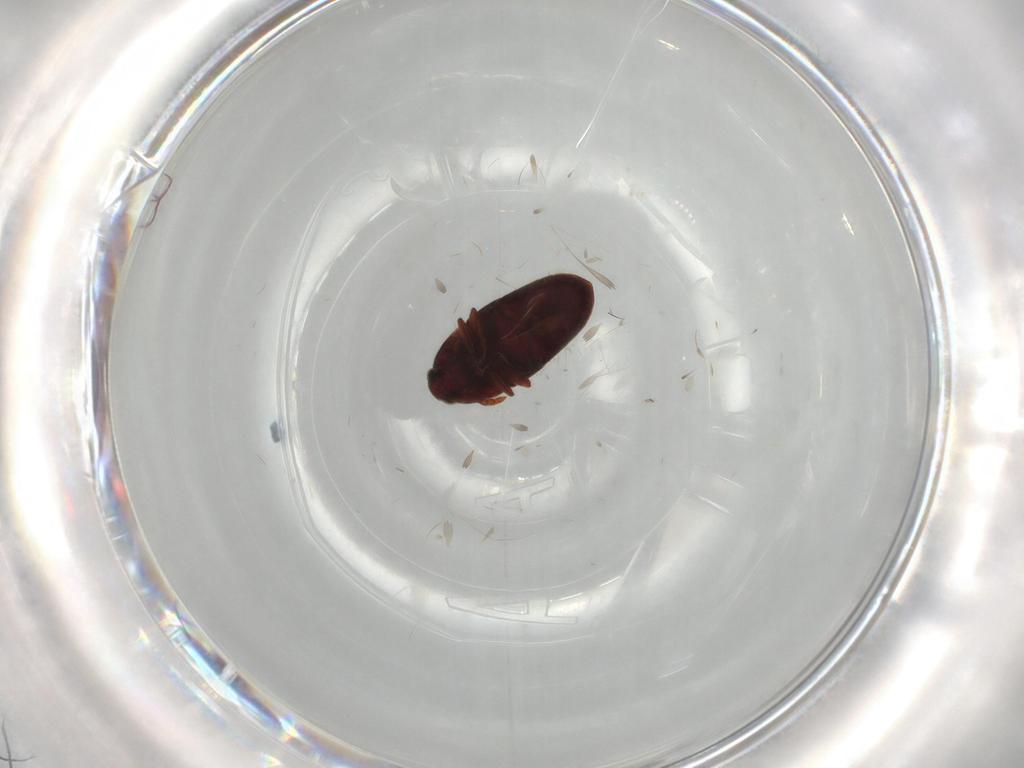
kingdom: Animalia
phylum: Arthropoda
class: Insecta
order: Coleoptera
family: Throscidae
